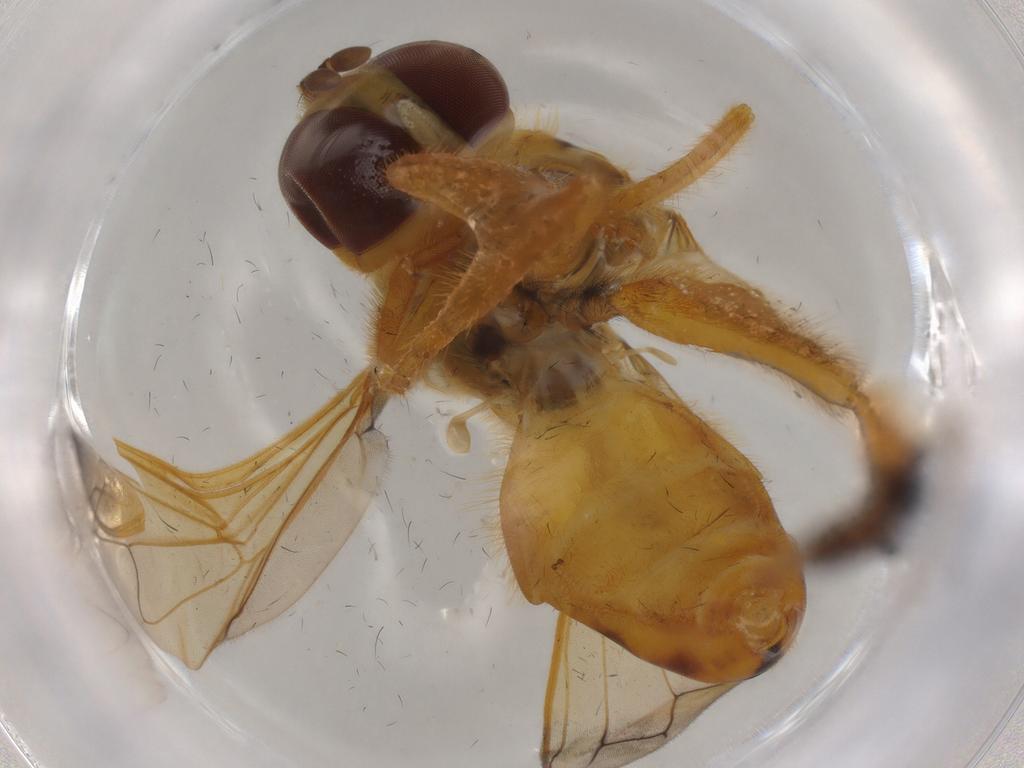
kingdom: Animalia
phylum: Arthropoda
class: Insecta
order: Diptera
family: Syrphidae
